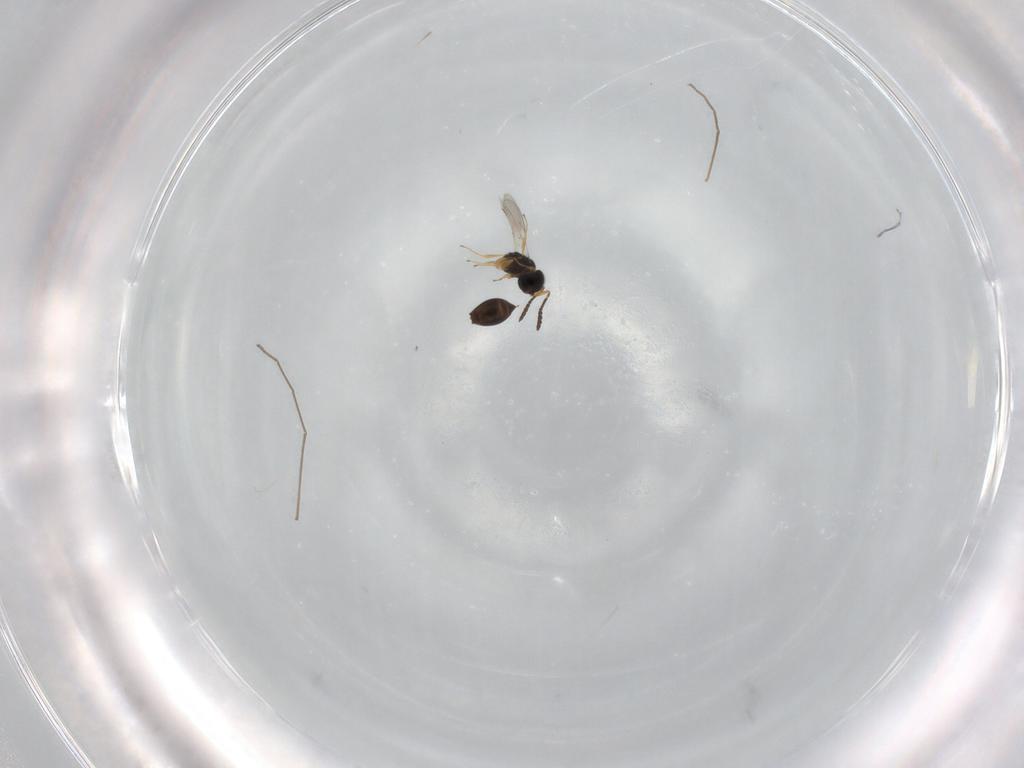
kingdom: Animalia
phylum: Arthropoda
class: Insecta
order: Hymenoptera
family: Scelionidae
